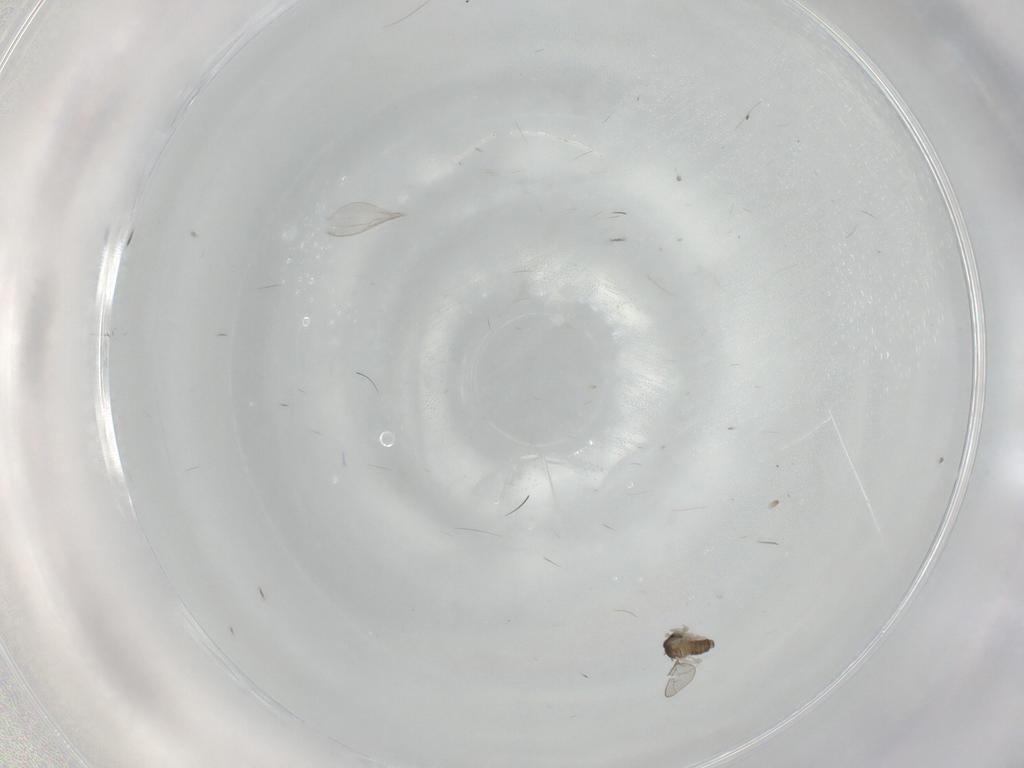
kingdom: Animalia
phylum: Arthropoda
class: Insecta
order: Diptera
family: Cecidomyiidae
